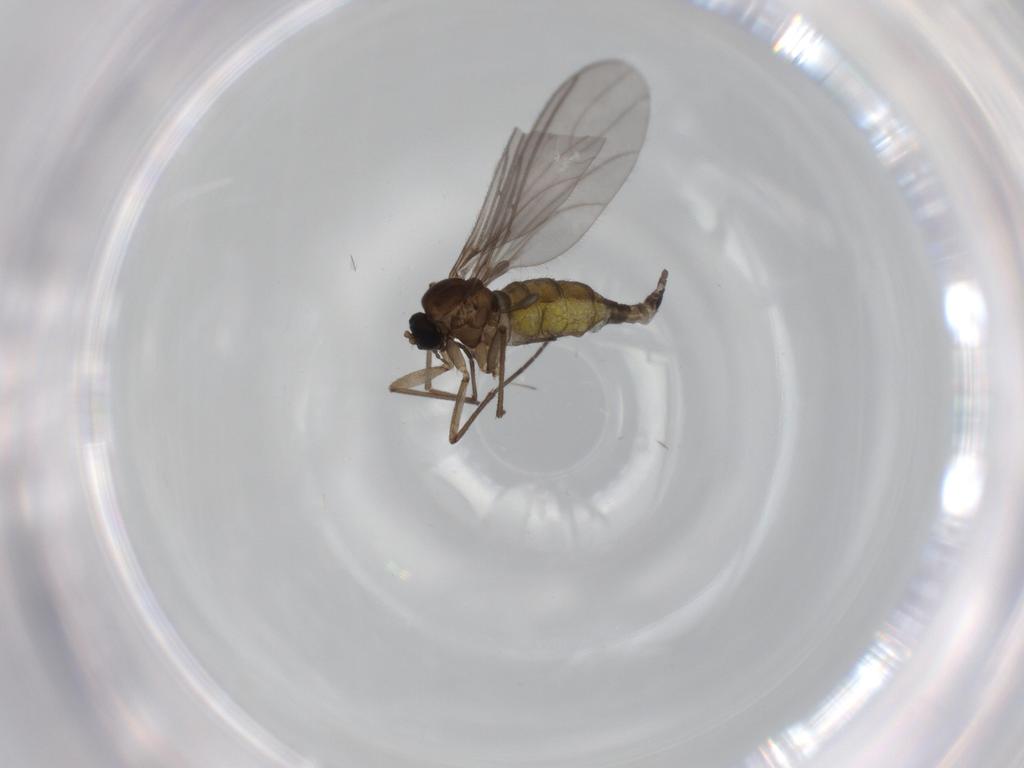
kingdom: Animalia
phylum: Arthropoda
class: Insecta
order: Diptera
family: Sciaridae
